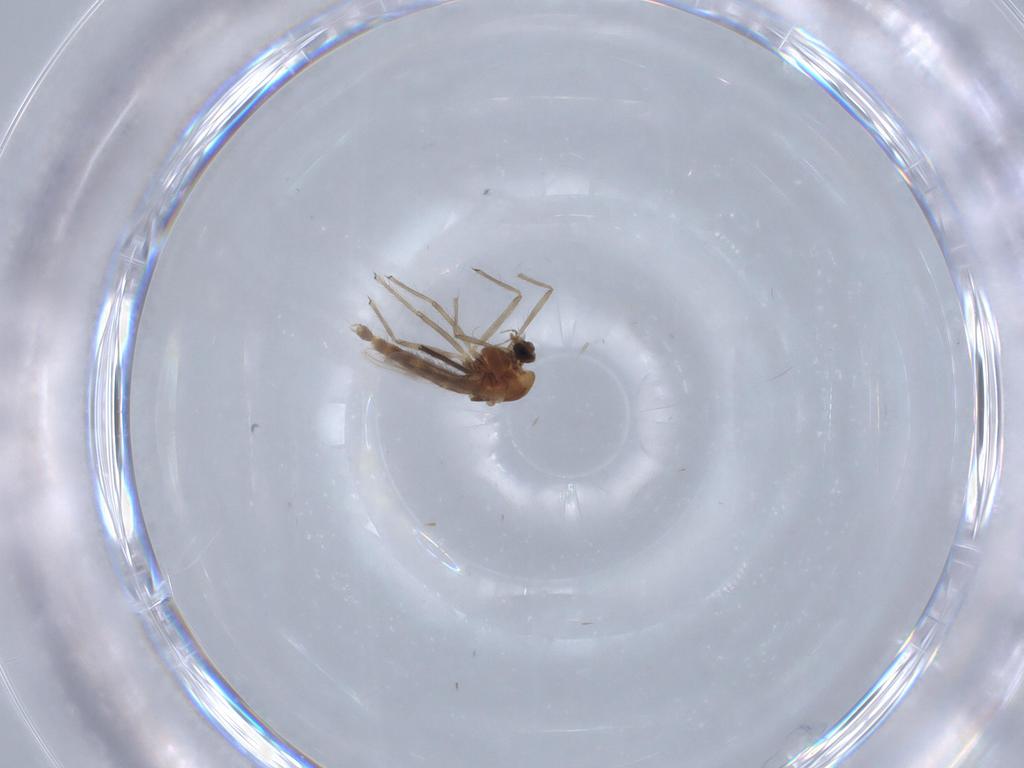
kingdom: Animalia
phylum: Arthropoda
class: Insecta
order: Diptera
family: Chironomidae
